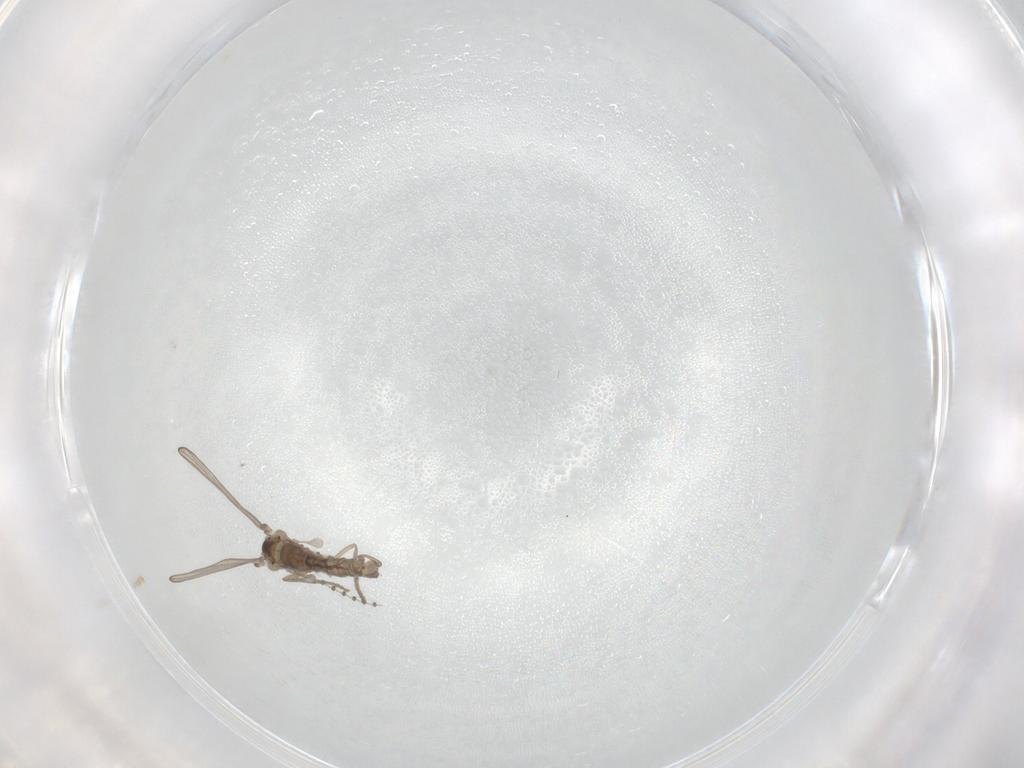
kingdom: Animalia
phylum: Arthropoda
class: Insecta
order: Diptera
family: Psychodidae
